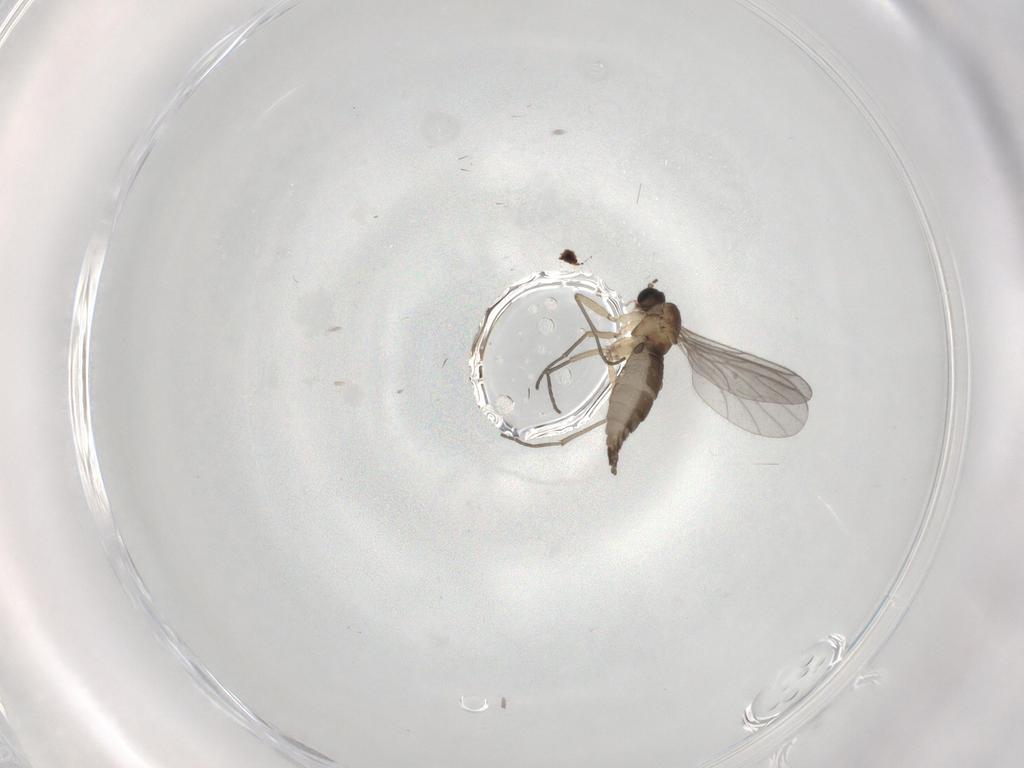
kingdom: Animalia
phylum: Arthropoda
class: Insecta
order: Diptera
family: Sciaridae
